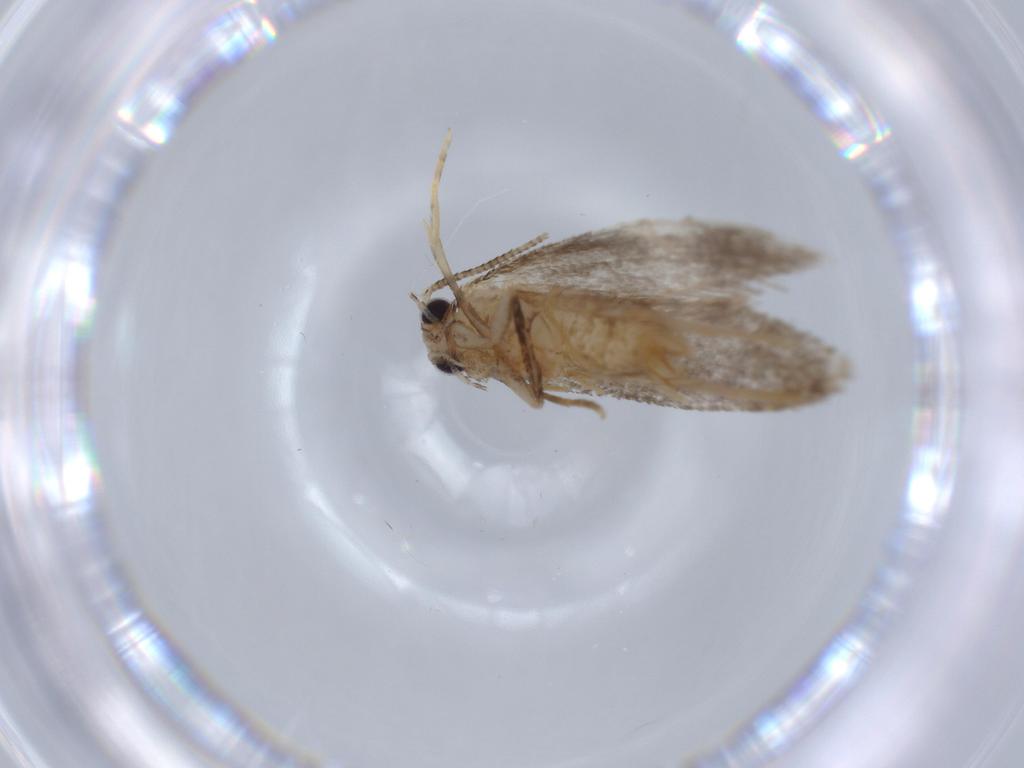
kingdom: Animalia
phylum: Arthropoda
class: Insecta
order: Lepidoptera
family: Tineidae
